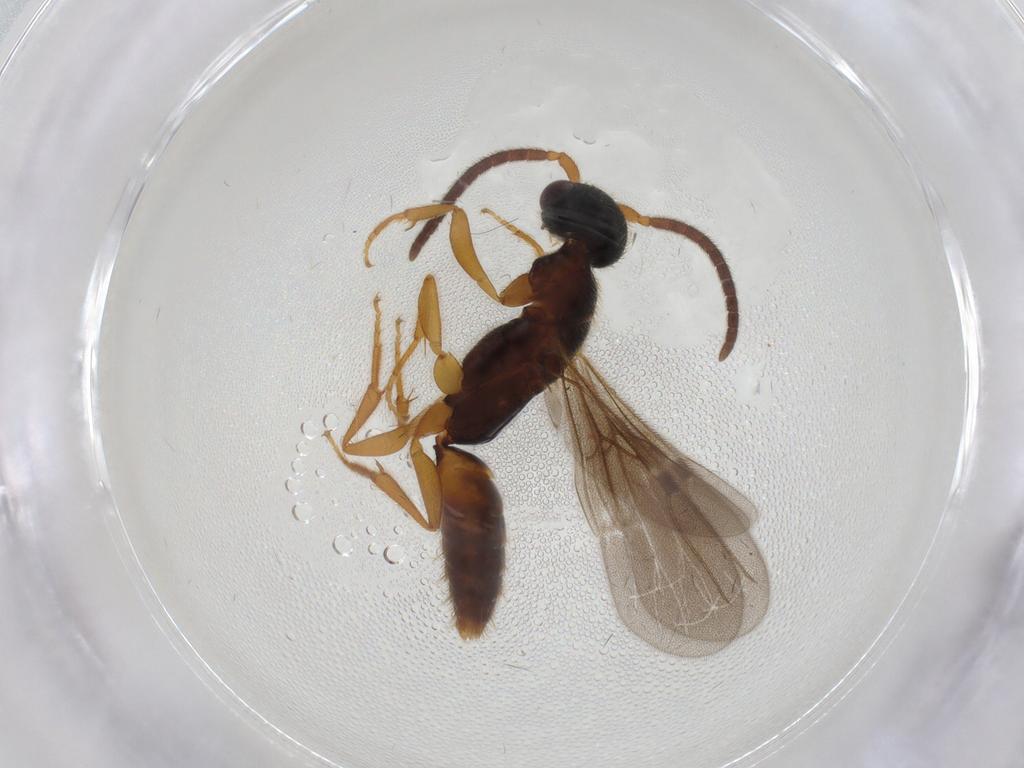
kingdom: Animalia
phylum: Arthropoda
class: Insecta
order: Hymenoptera
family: Bethylidae
